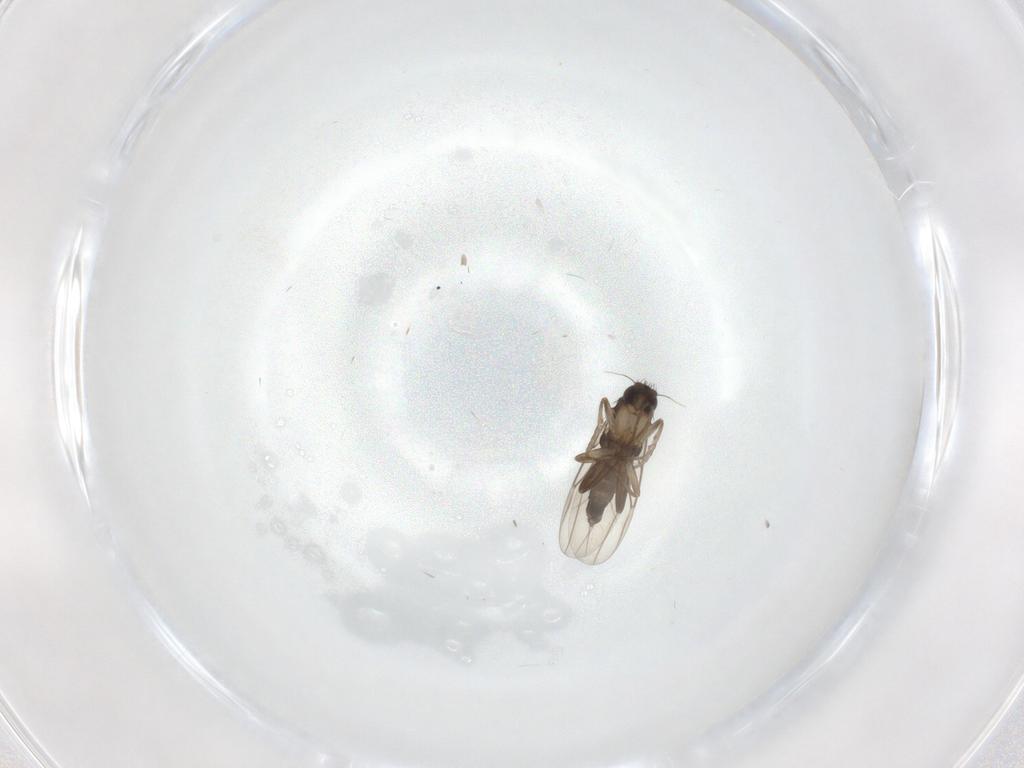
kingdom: Animalia
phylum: Arthropoda
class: Insecta
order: Diptera
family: Phoridae
